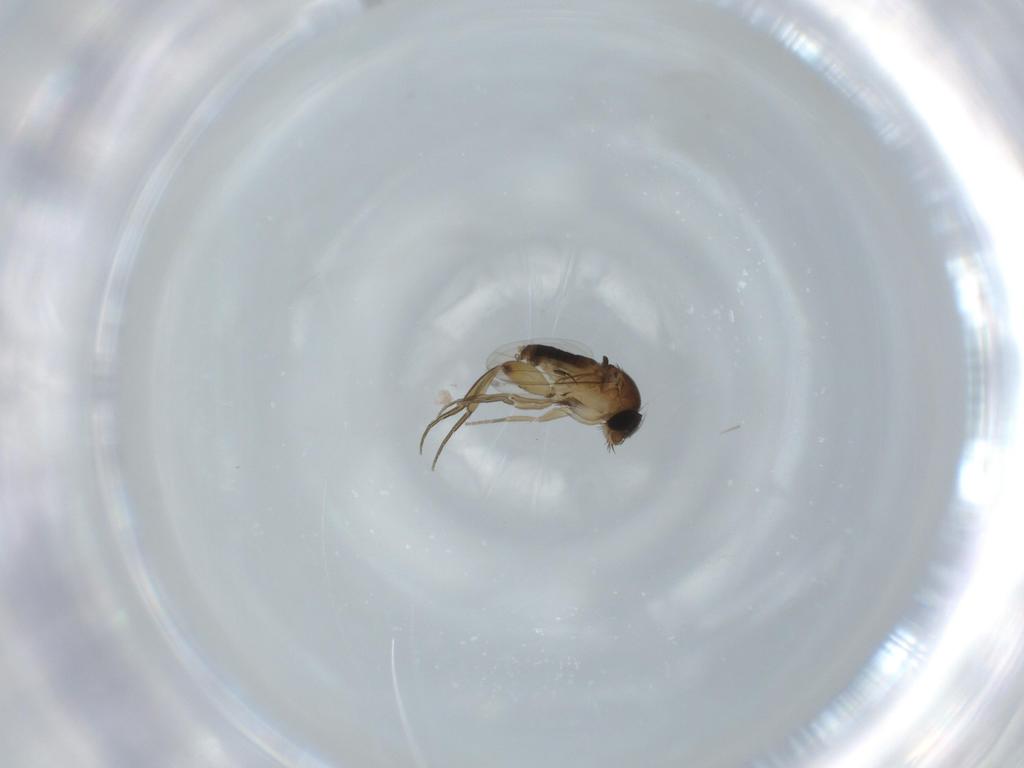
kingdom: Animalia
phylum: Arthropoda
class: Insecta
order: Diptera
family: Phoridae
